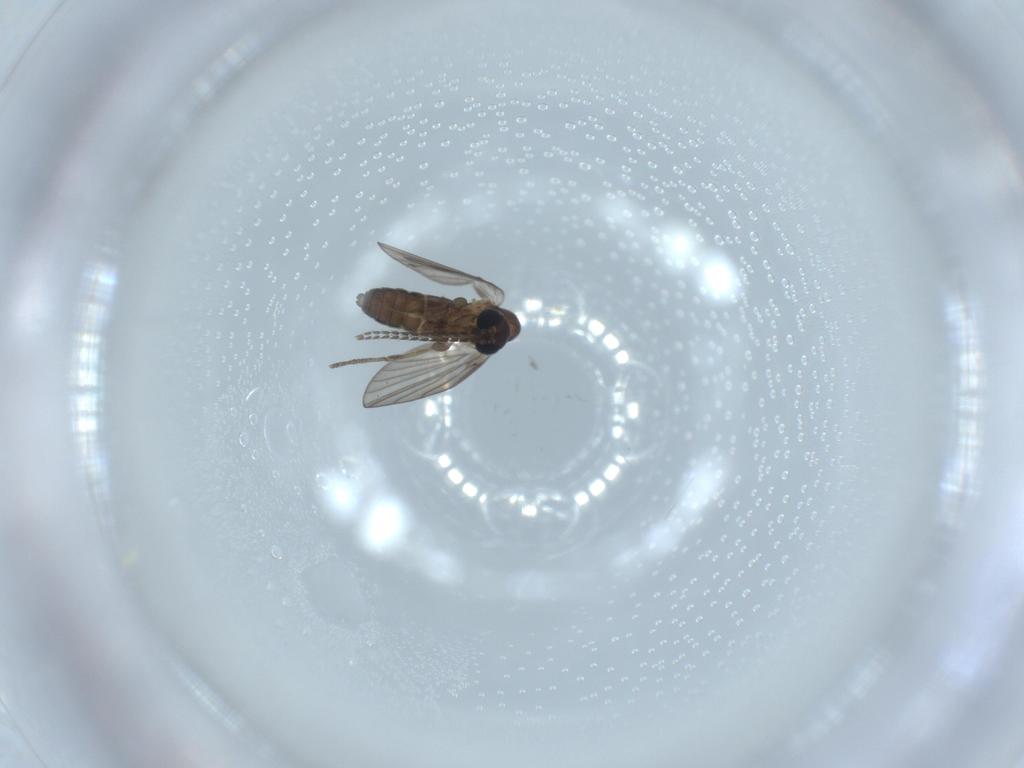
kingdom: Animalia
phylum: Arthropoda
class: Insecta
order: Diptera
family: Psychodidae
